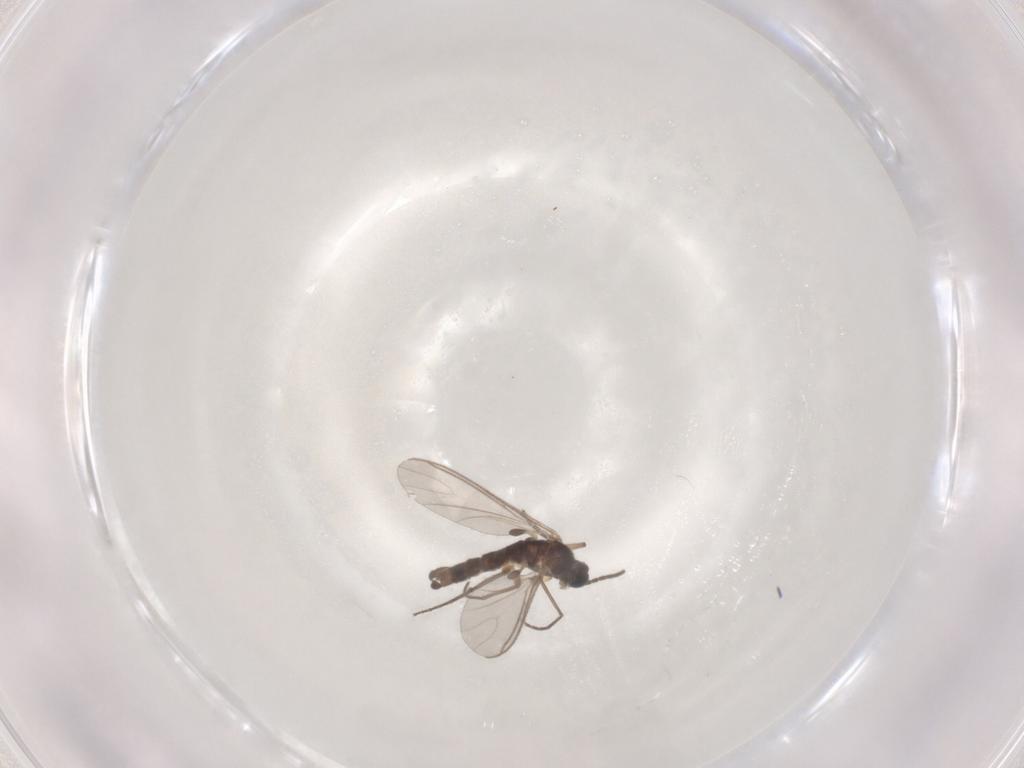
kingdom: Animalia
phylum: Arthropoda
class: Insecta
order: Diptera
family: Sciaridae
